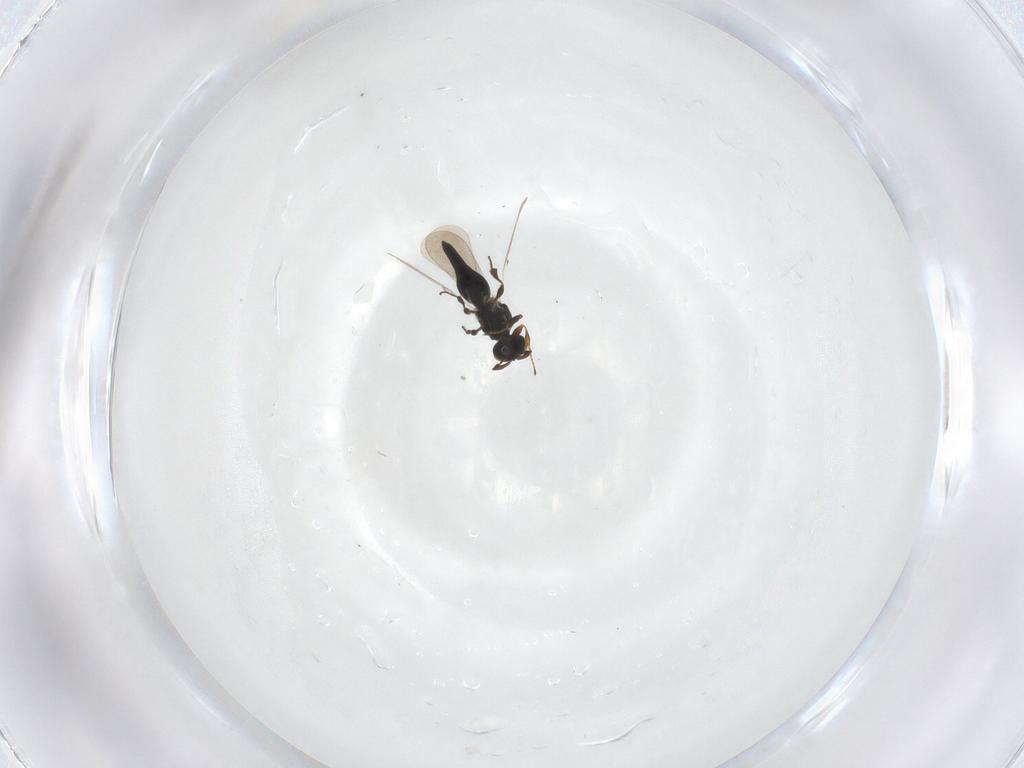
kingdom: Animalia
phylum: Arthropoda
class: Insecta
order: Hymenoptera
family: Platygastridae
